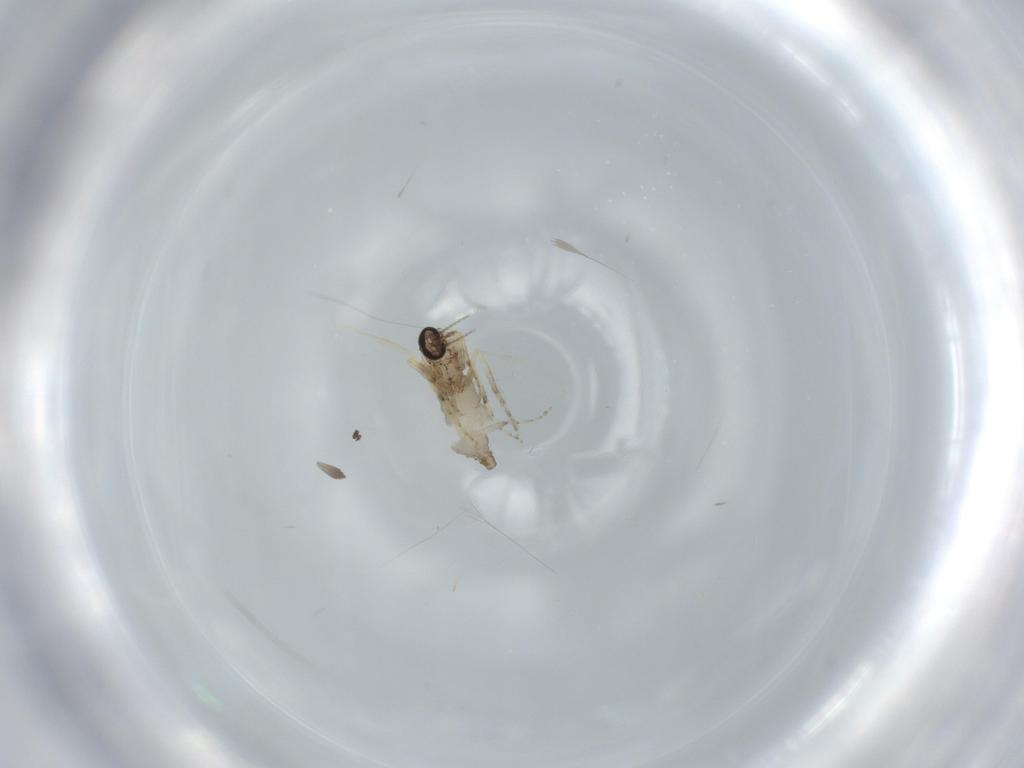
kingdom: Animalia
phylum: Arthropoda
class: Insecta
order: Diptera
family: Ceratopogonidae
